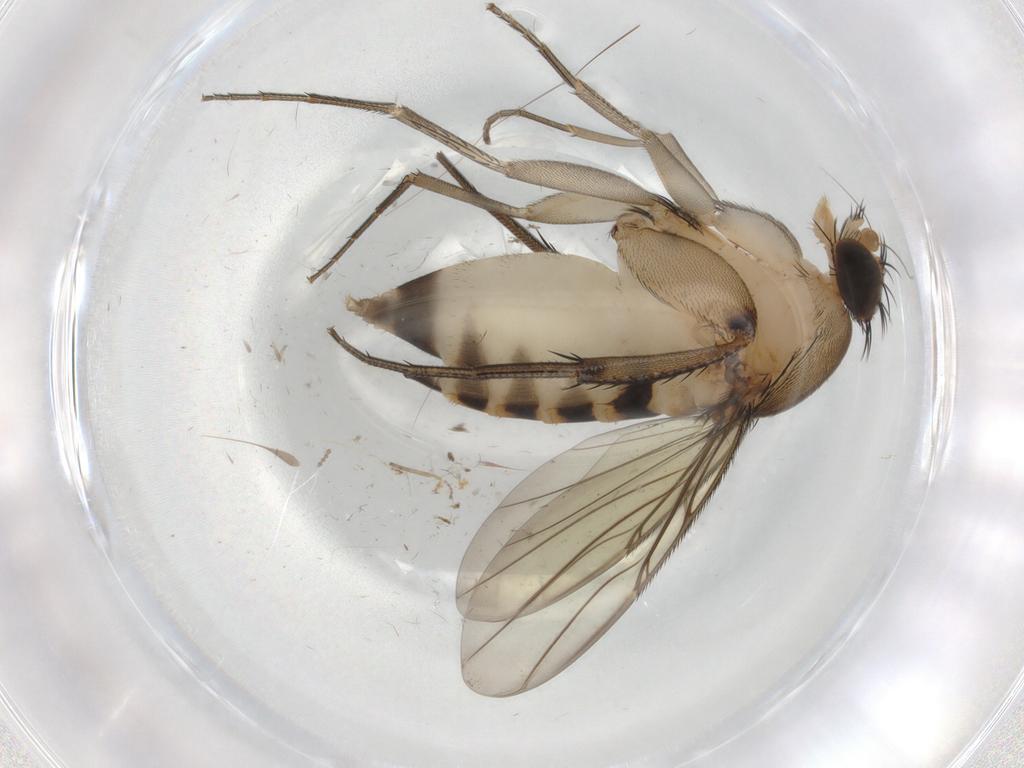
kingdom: Animalia
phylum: Arthropoda
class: Insecta
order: Diptera
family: Phoridae
